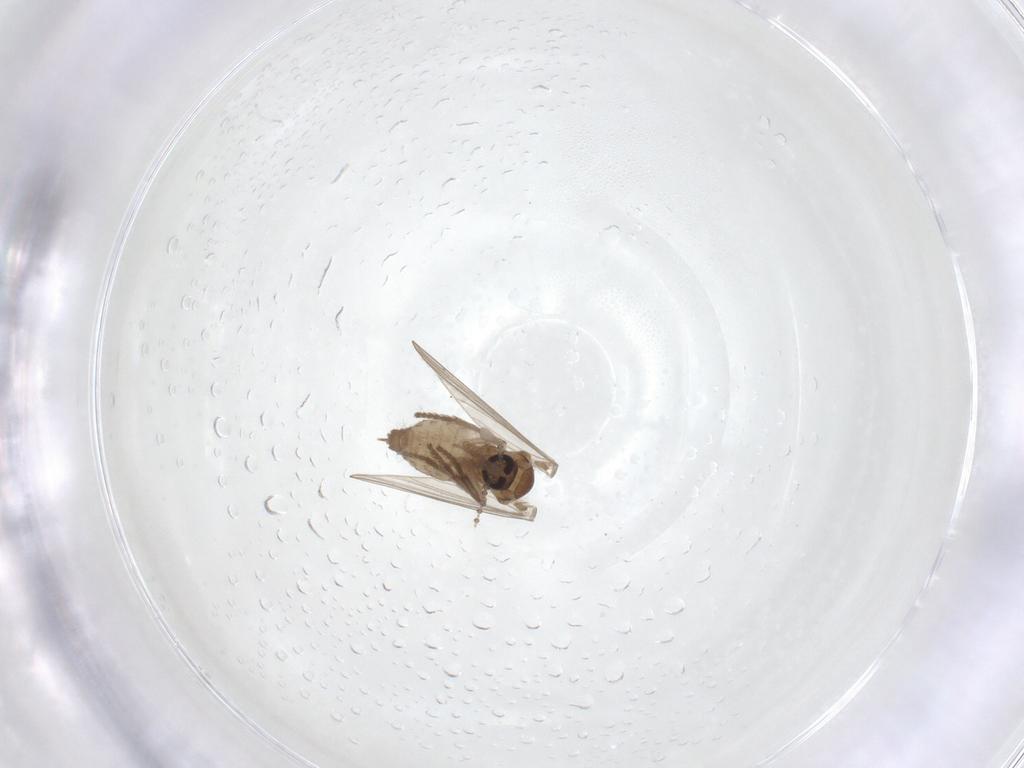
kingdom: Animalia
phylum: Arthropoda
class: Insecta
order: Diptera
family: Psychodidae
